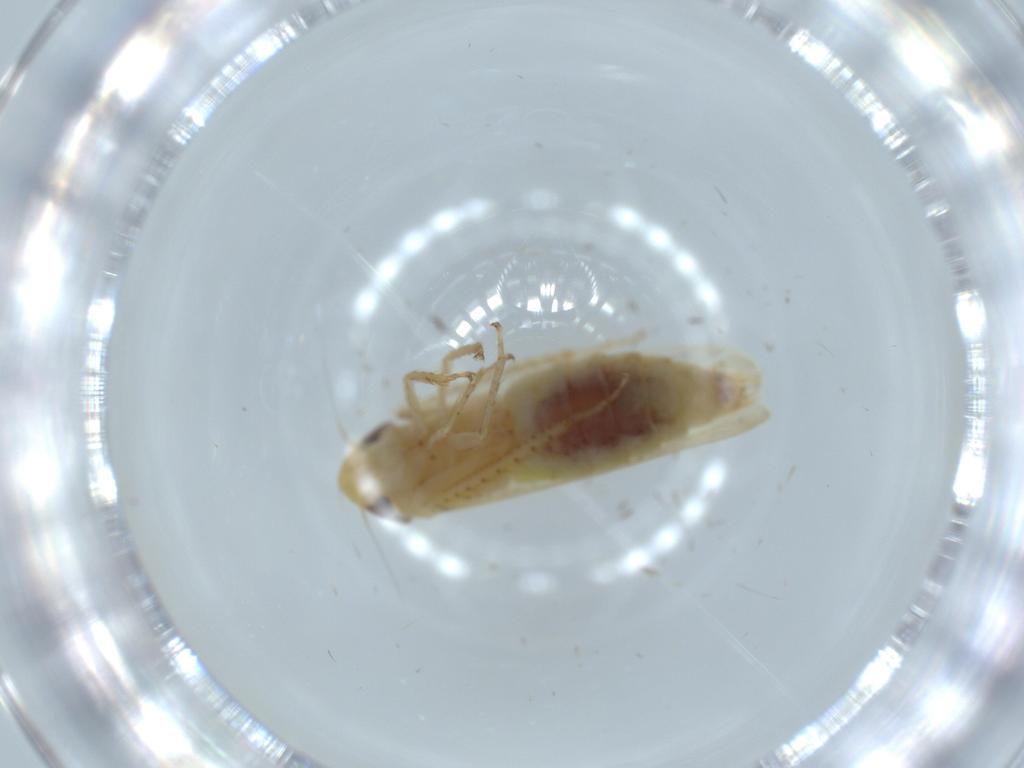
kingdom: Animalia
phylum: Arthropoda
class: Insecta
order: Hemiptera
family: Cicadellidae
